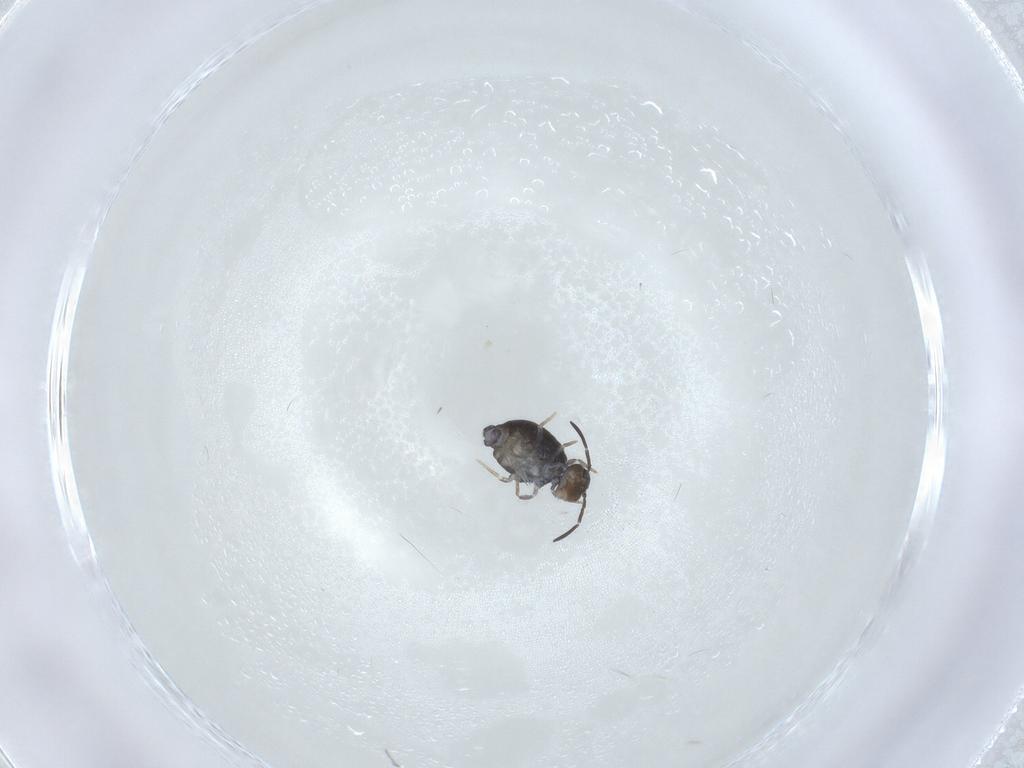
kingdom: Animalia
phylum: Arthropoda
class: Collembola
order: Symphypleona
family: Katiannidae
